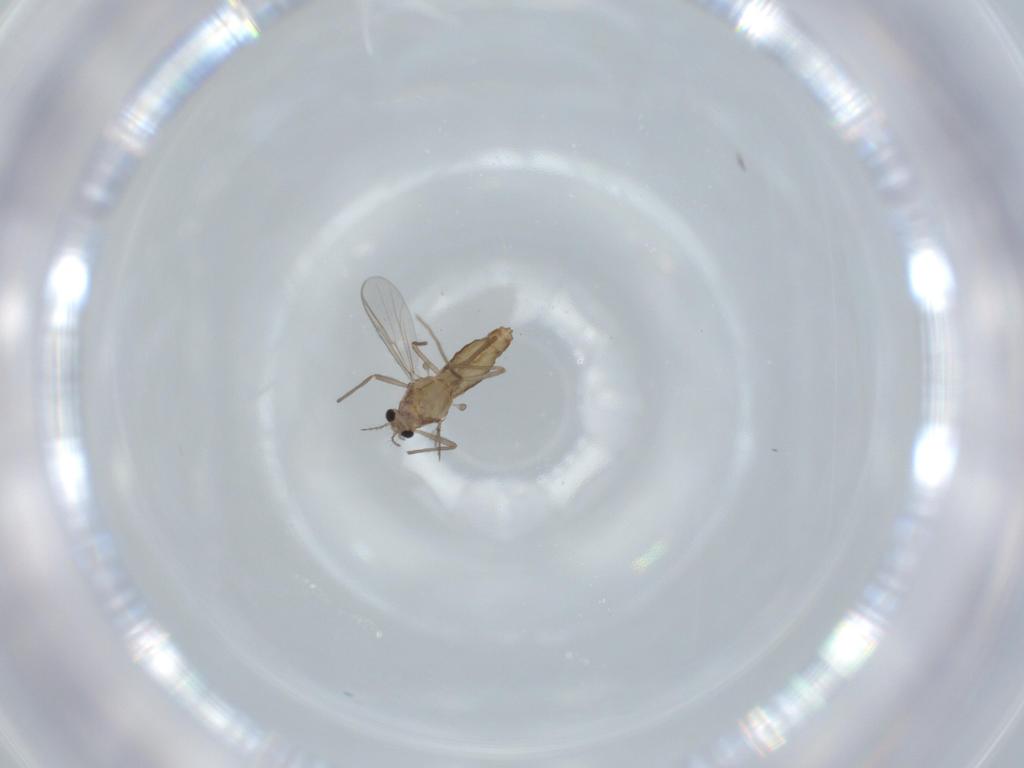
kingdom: Animalia
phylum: Arthropoda
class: Insecta
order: Diptera
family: Chironomidae
